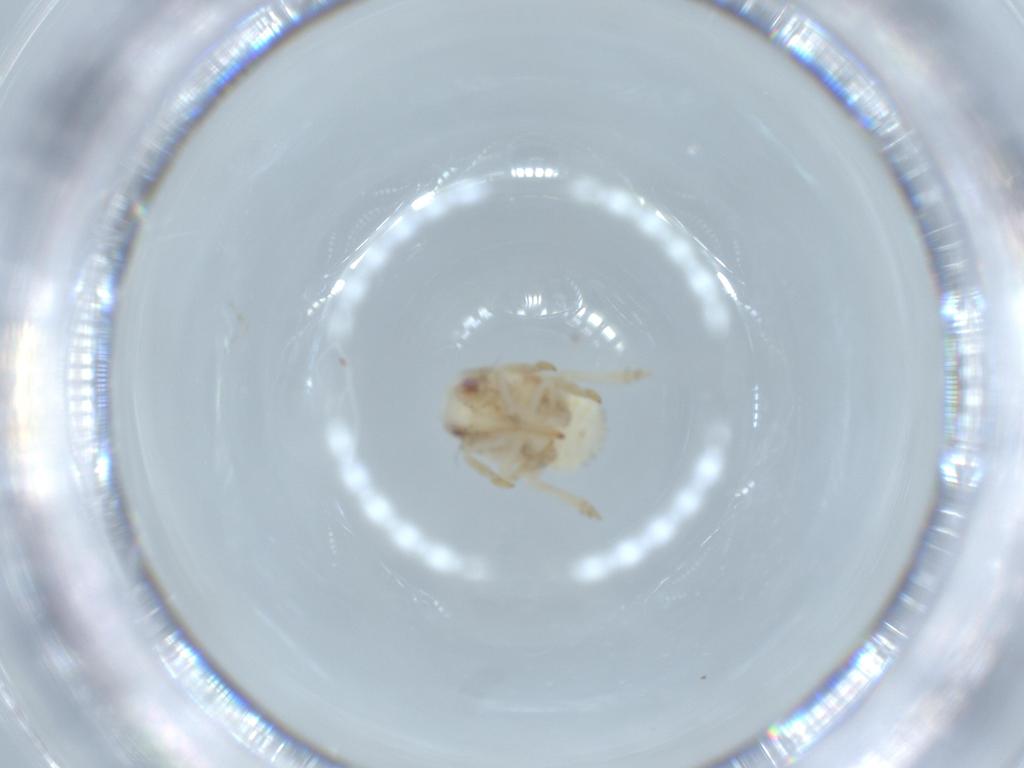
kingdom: Animalia
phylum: Arthropoda
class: Insecta
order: Hemiptera
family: Acanaloniidae
